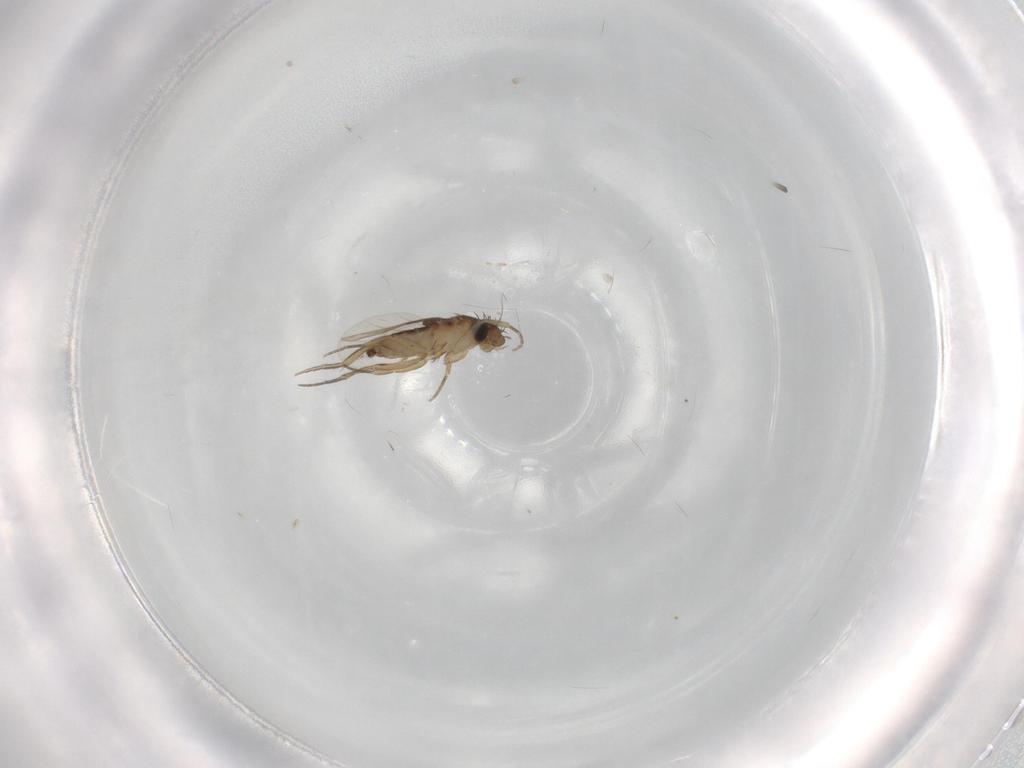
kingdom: Animalia
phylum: Arthropoda
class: Insecta
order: Diptera
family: Phoridae
